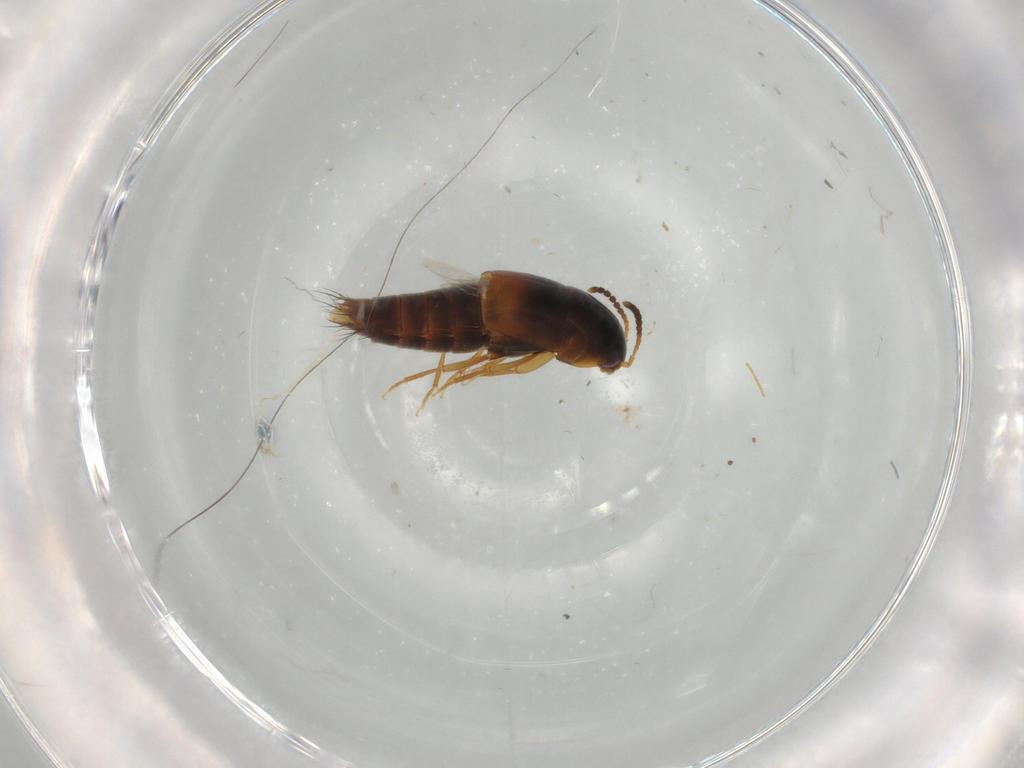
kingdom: Animalia
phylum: Arthropoda
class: Insecta
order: Coleoptera
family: Staphylinidae
